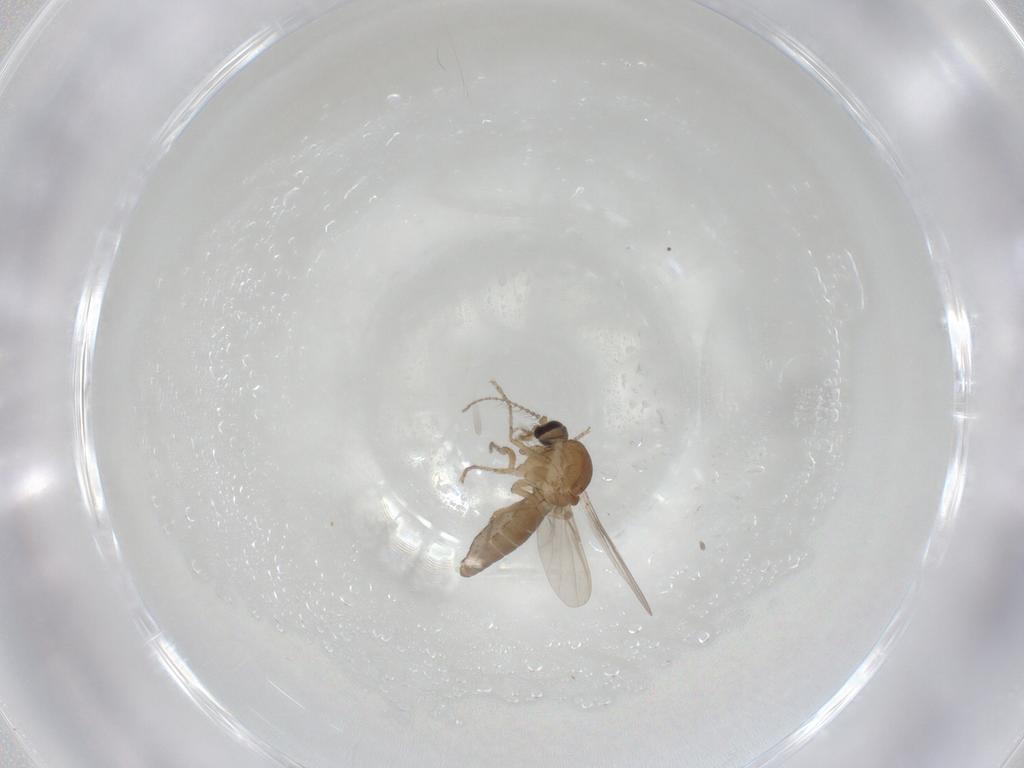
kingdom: Animalia
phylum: Arthropoda
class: Insecta
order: Diptera
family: Ceratopogonidae
